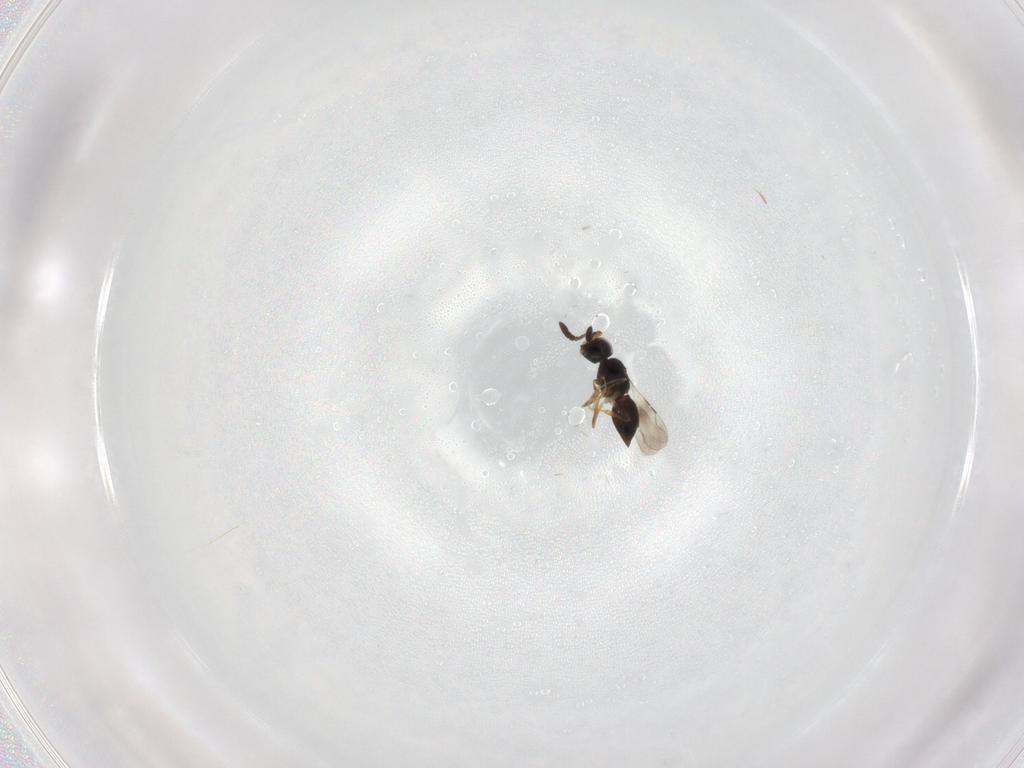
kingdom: Animalia
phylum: Arthropoda
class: Insecta
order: Hymenoptera
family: Ceraphronidae
